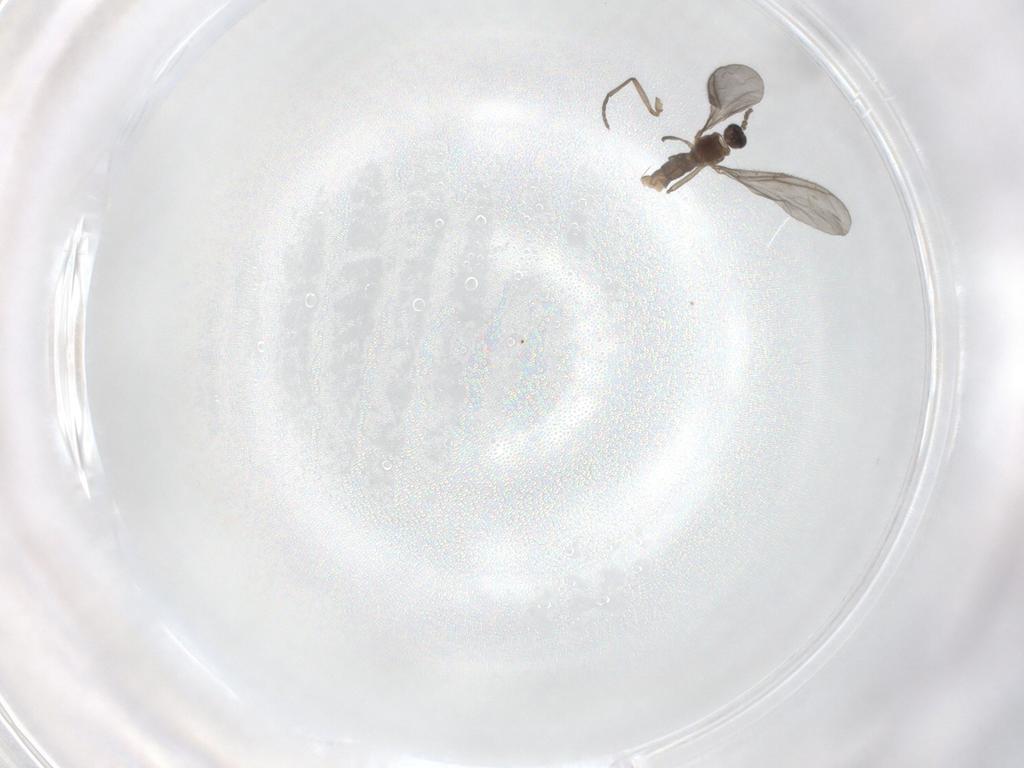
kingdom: Animalia
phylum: Arthropoda
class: Insecta
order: Diptera
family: Sciaridae
